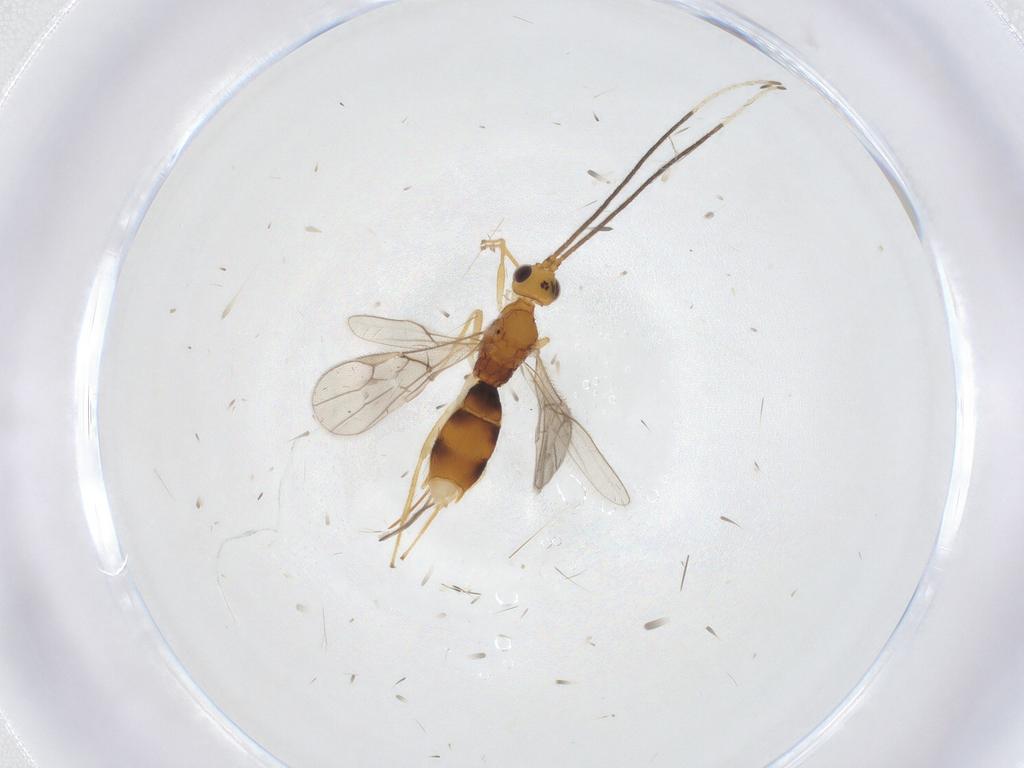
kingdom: Animalia
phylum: Arthropoda
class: Insecta
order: Hymenoptera
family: Braconidae
